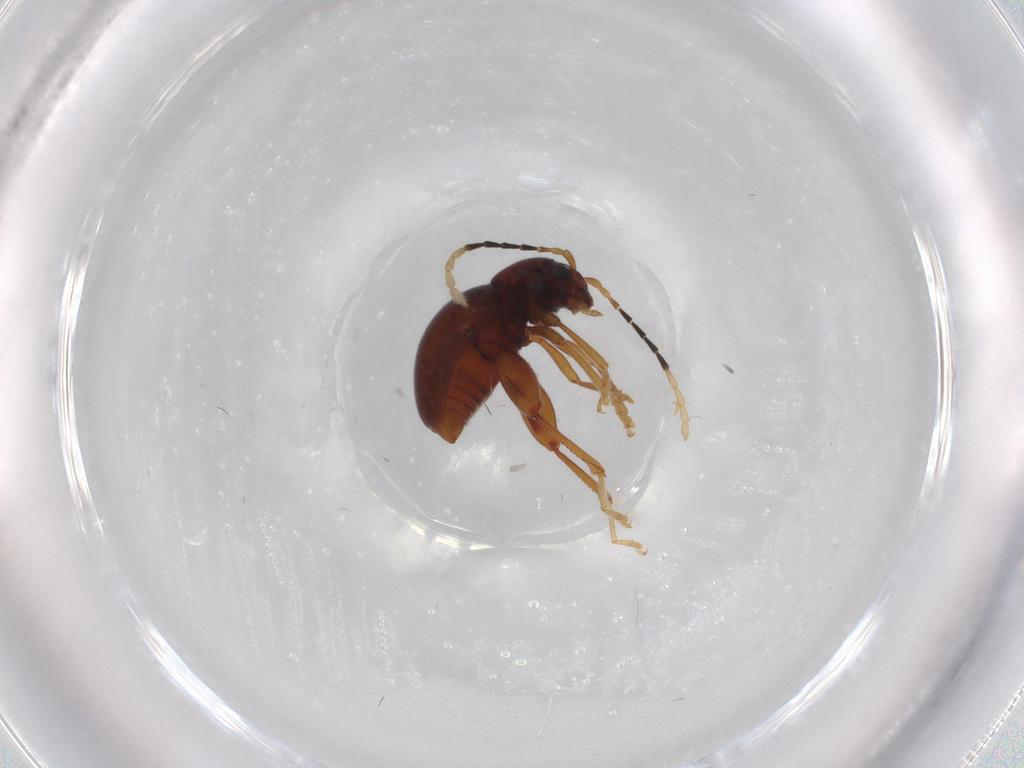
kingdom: Animalia
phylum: Arthropoda
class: Insecta
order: Coleoptera
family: Chrysomelidae
